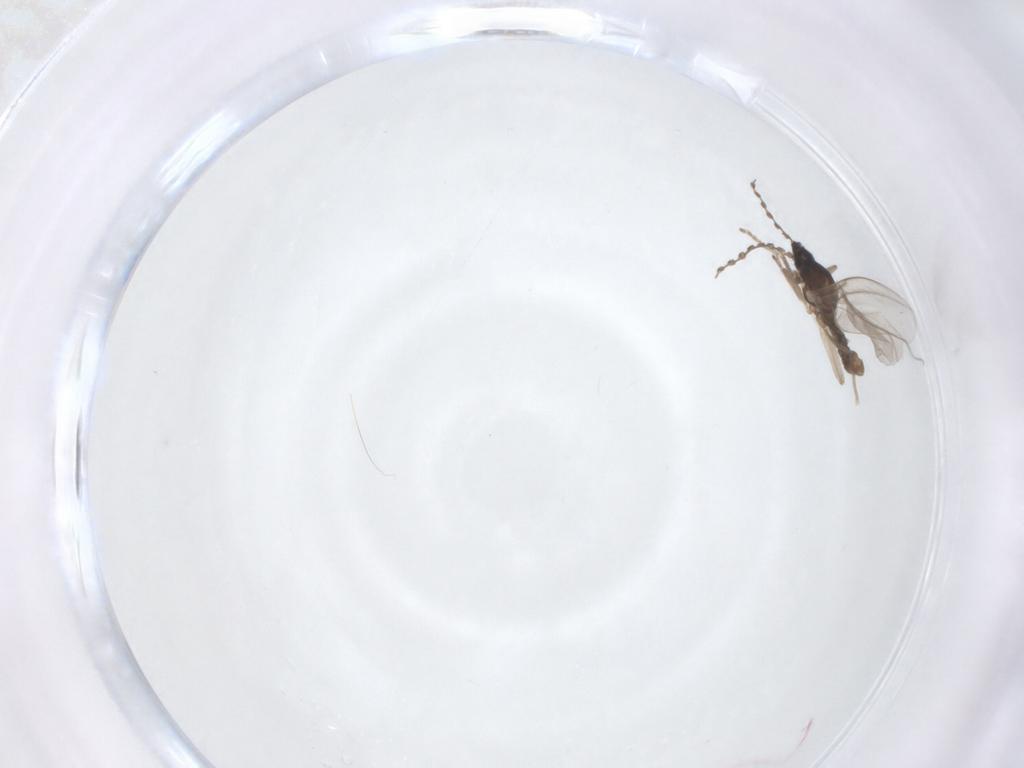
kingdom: Animalia
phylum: Arthropoda
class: Insecta
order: Diptera
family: Cecidomyiidae
